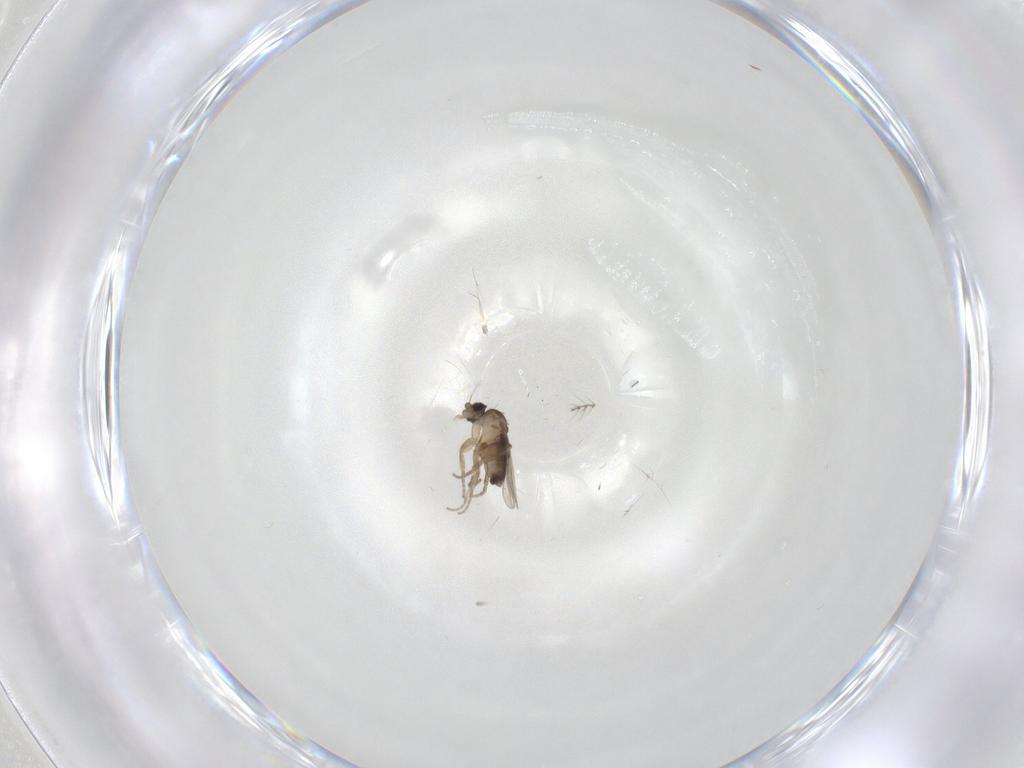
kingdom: Animalia
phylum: Arthropoda
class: Insecta
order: Diptera
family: Phoridae
